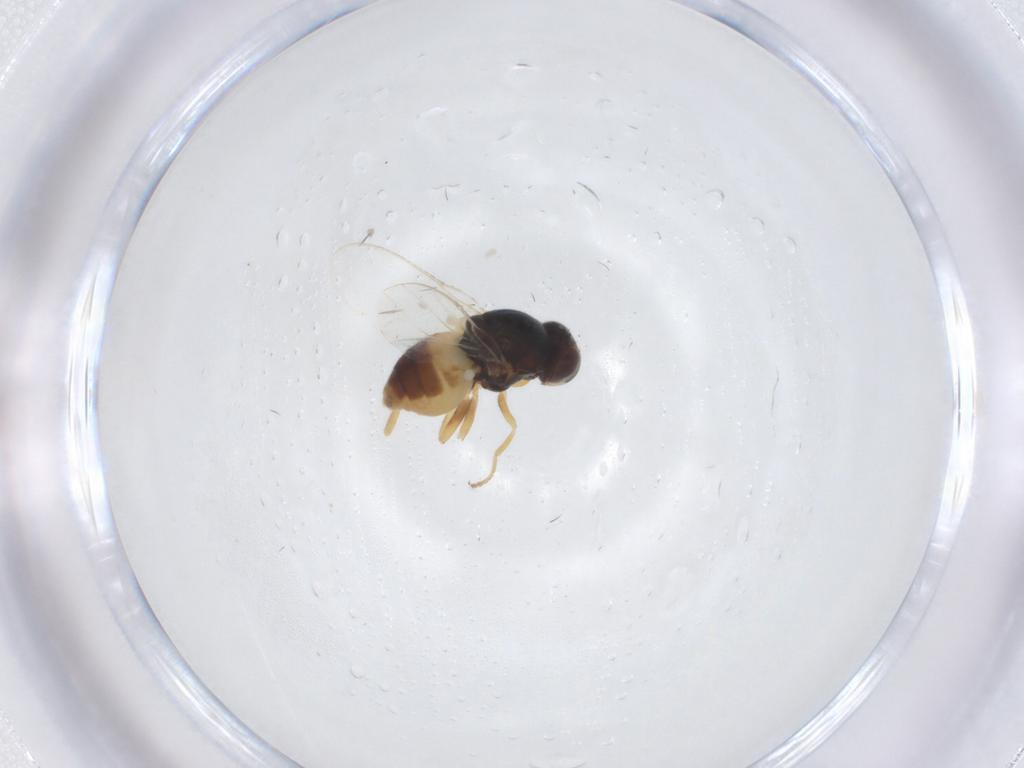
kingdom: Animalia
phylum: Arthropoda
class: Insecta
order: Diptera
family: Chloropidae
